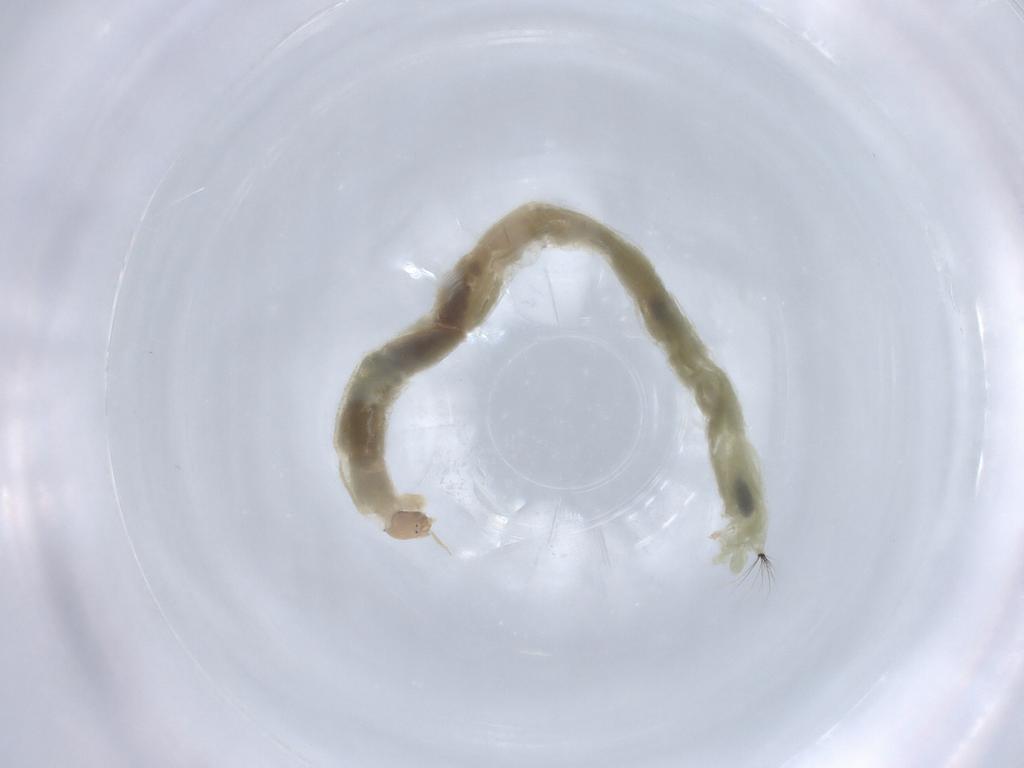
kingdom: Animalia
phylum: Arthropoda
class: Insecta
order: Diptera
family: Chironomidae
